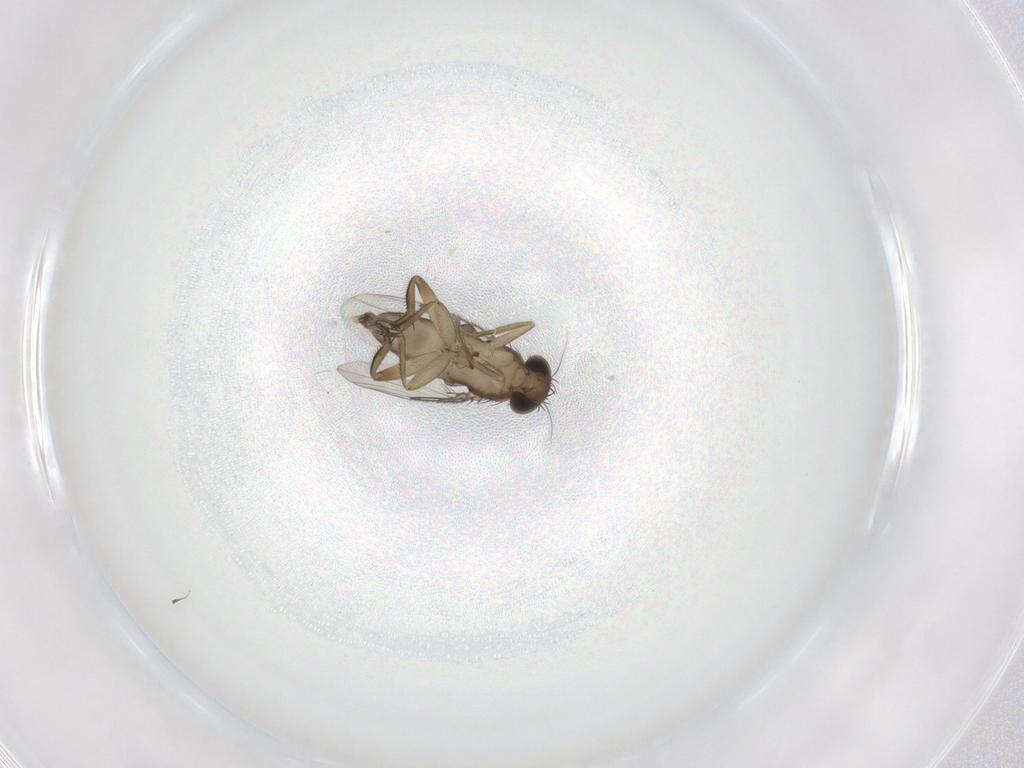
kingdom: Animalia
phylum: Arthropoda
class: Insecta
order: Diptera
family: Phoridae
